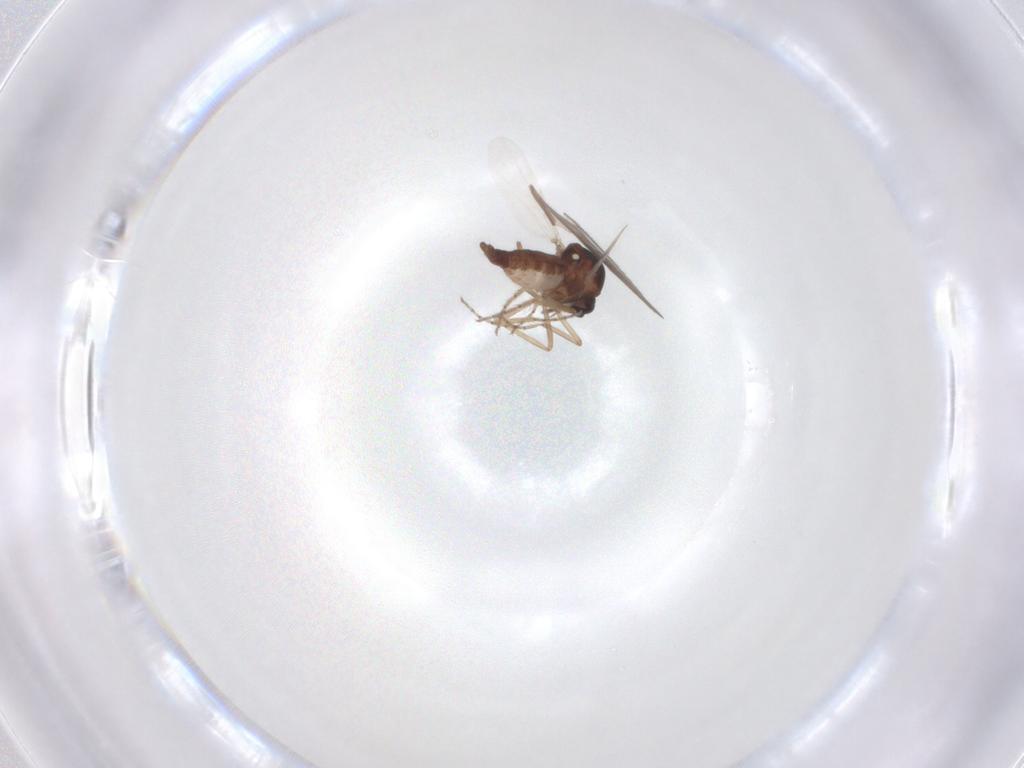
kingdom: Animalia
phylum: Arthropoda
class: Insecta
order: Diptera
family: Ceratopogonidae
